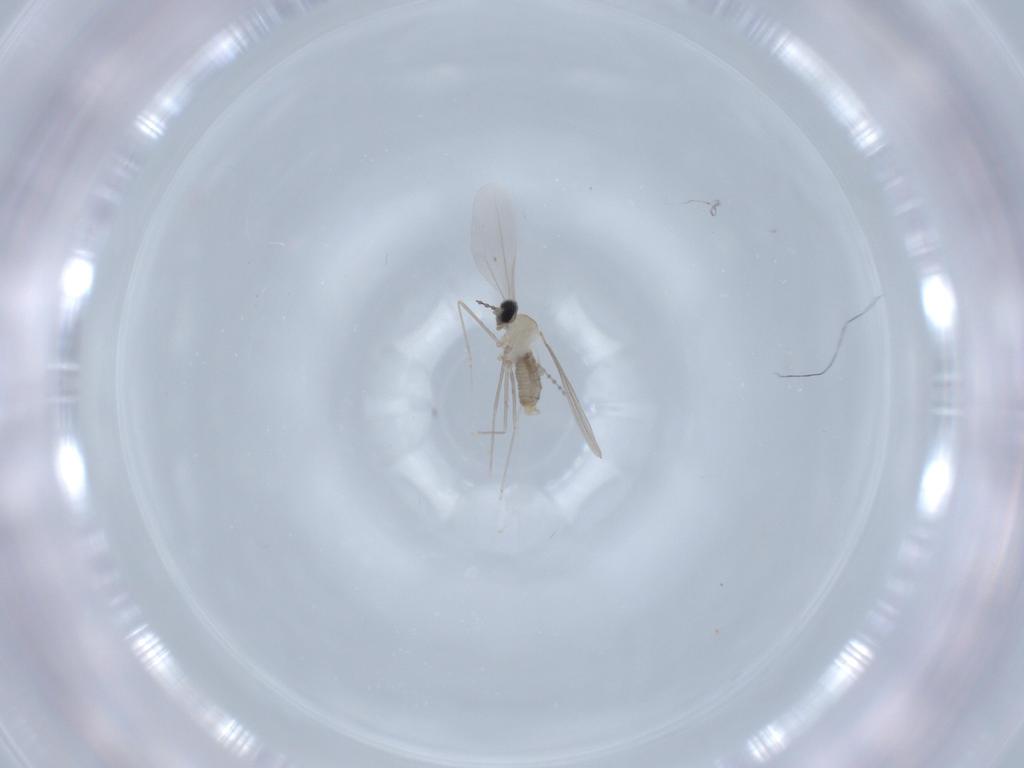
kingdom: Animalia
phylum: Arthropoda
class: Insecta
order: Diptera
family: Cecidomyiidae
